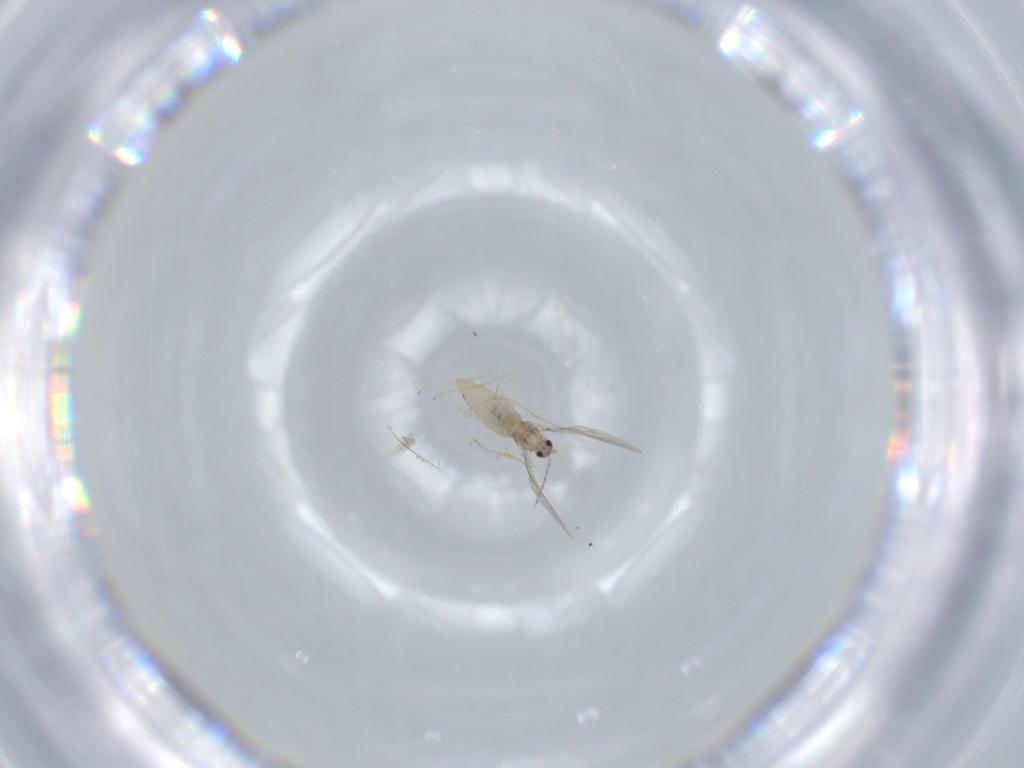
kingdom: Animalia
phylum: Arthropoda
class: Insecta
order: Diptera
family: Cecidomyiidae
